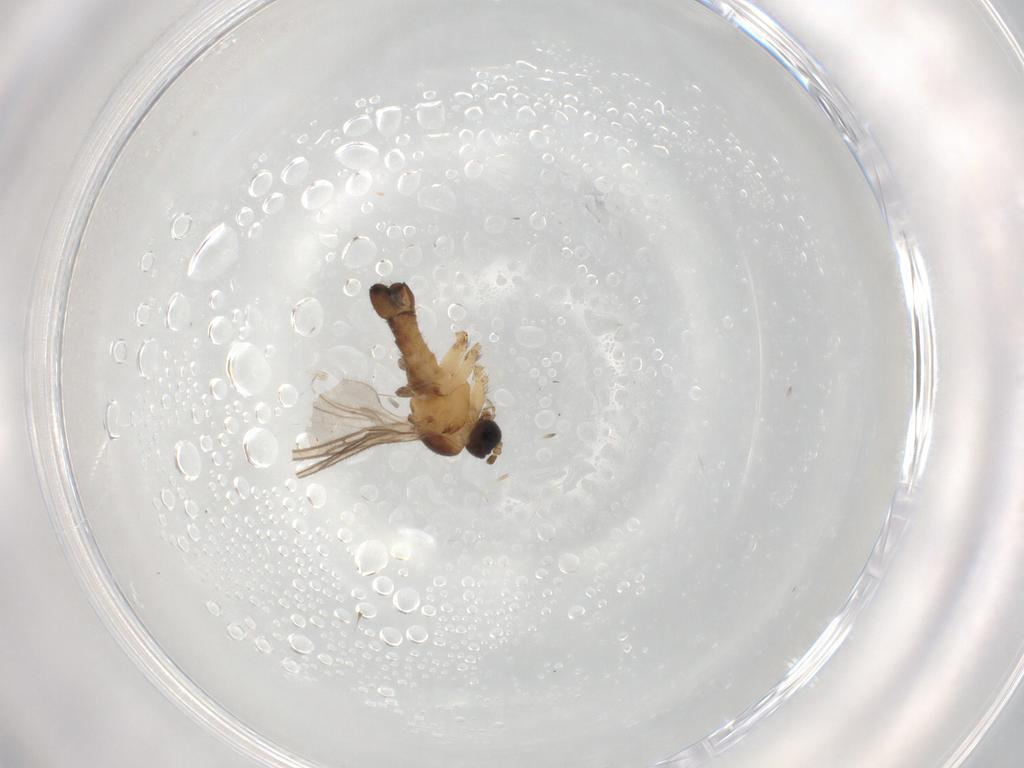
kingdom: Animalia
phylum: Arthropoda
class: Insecta
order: Diptera
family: Sciaridae
